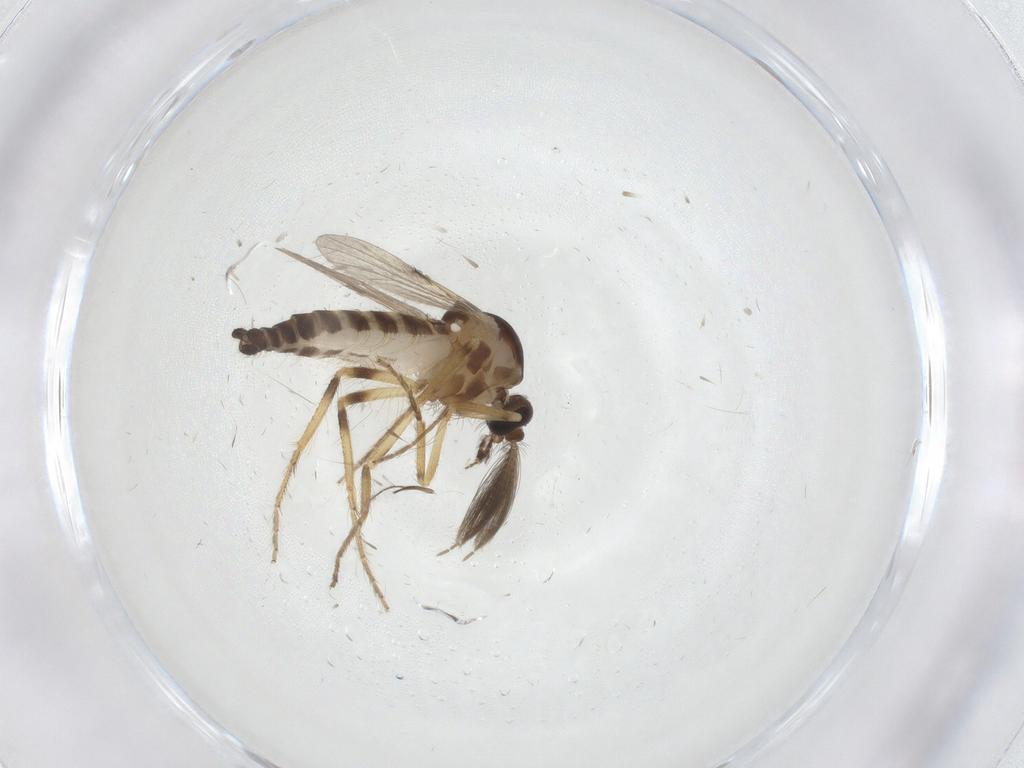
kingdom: Animalia
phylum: Arthropoda
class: Insecta
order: Diptera
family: Ceratopogonidae
